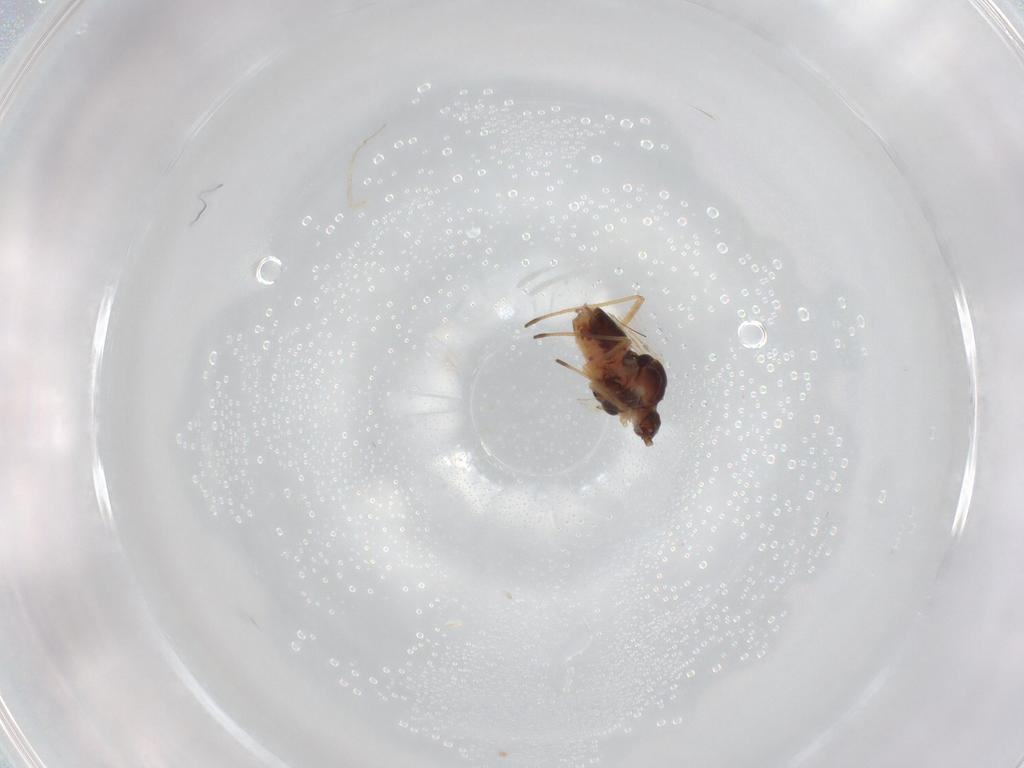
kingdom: Animalia
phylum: Arthropoda
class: Insecta
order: Hemiptera
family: Aphididae
